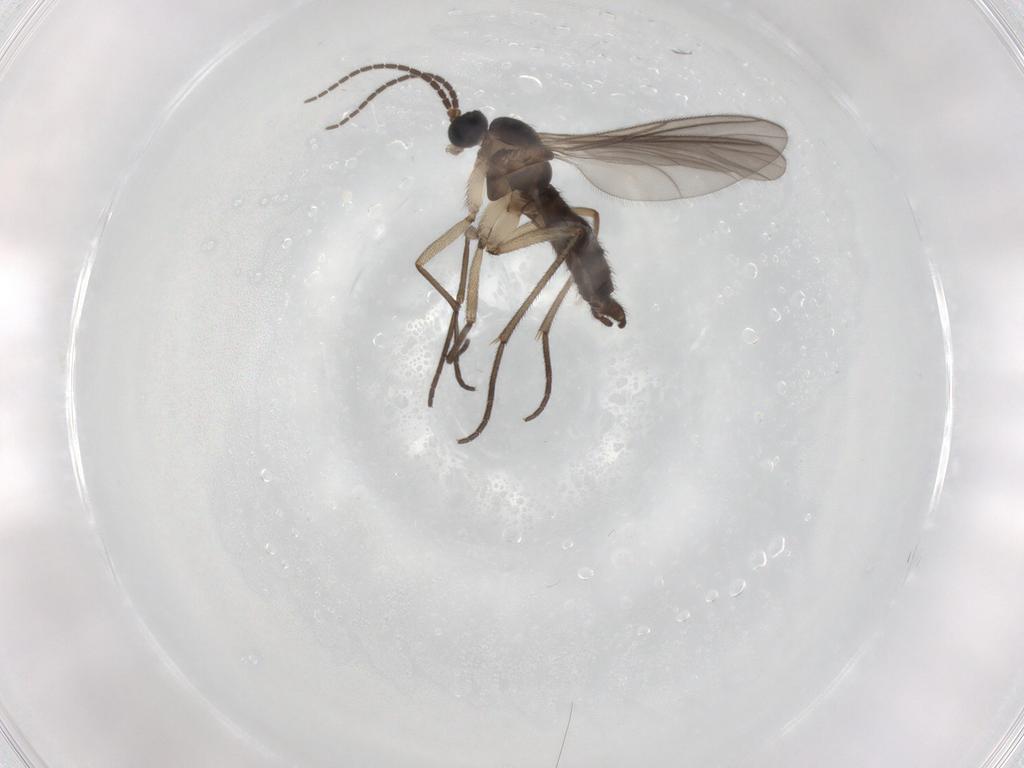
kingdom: Animalia
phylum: Arthropoda
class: Insecta
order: Diptera
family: Sciaridae
